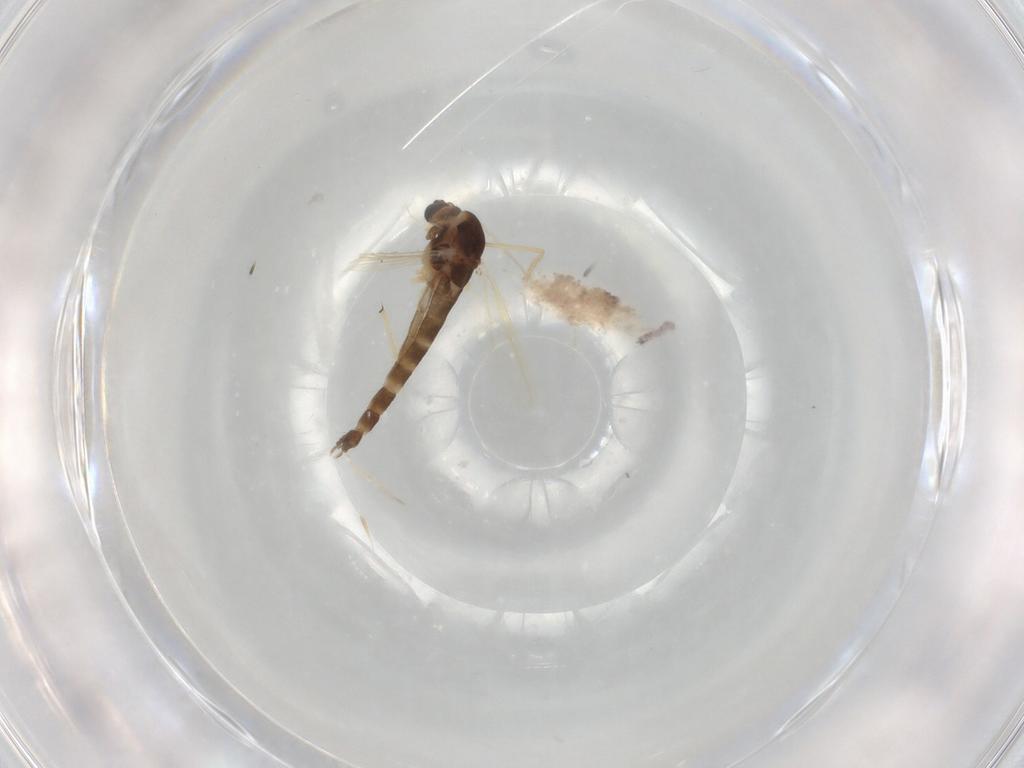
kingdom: Animalia
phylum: Arthropoda
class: Insecta
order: Diptera
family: Chironomidae
